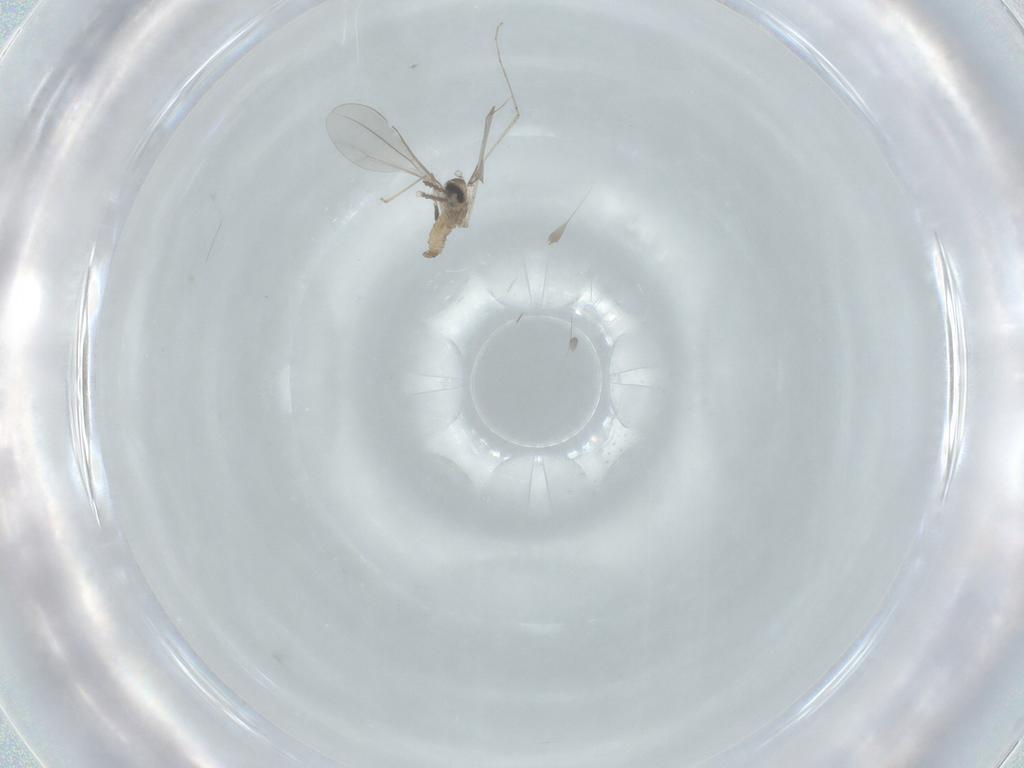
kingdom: Animalia
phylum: Arthropoda
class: Insecta
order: Diptera
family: Cecidomyiidae
